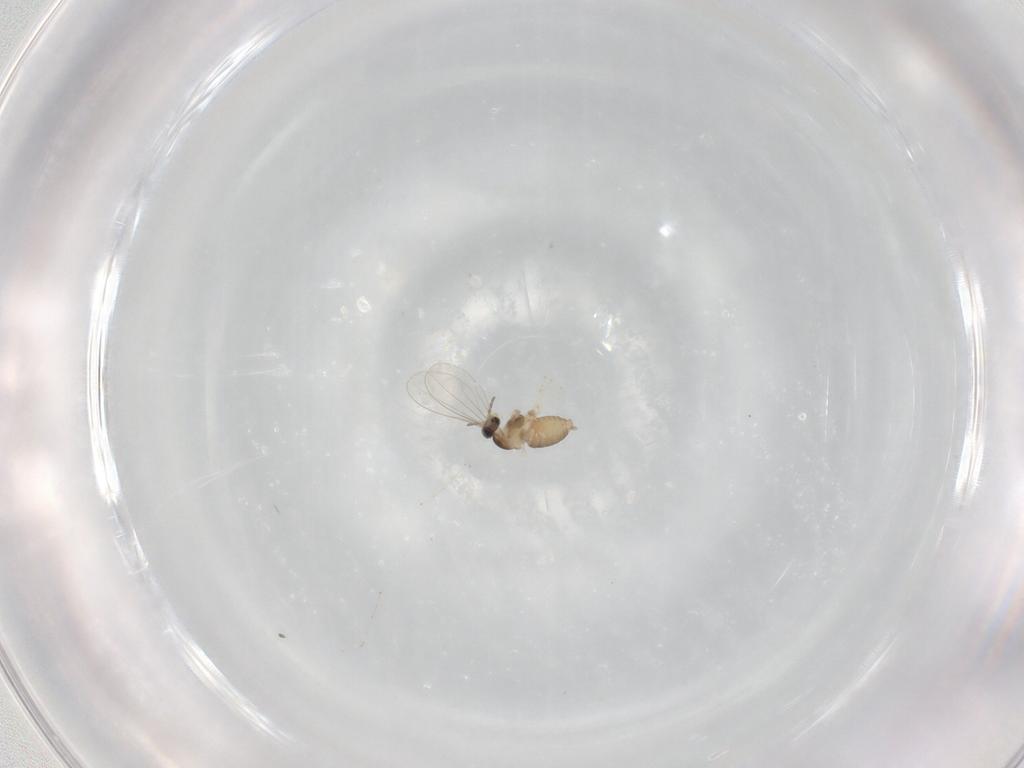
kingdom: Animalia
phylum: Arthropoda
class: Insecta
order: Diptera
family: Cecidomyiidae
